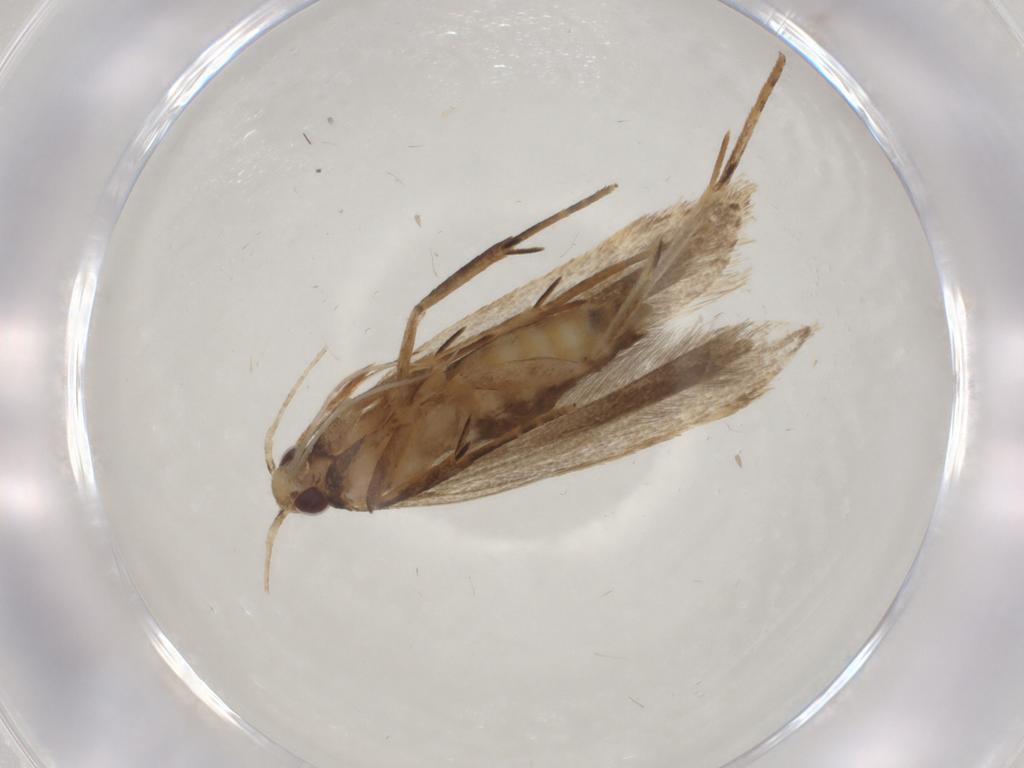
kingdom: Animalia
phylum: Arthropoda
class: Insecta
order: Lepidoptera
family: Gelechiidae
